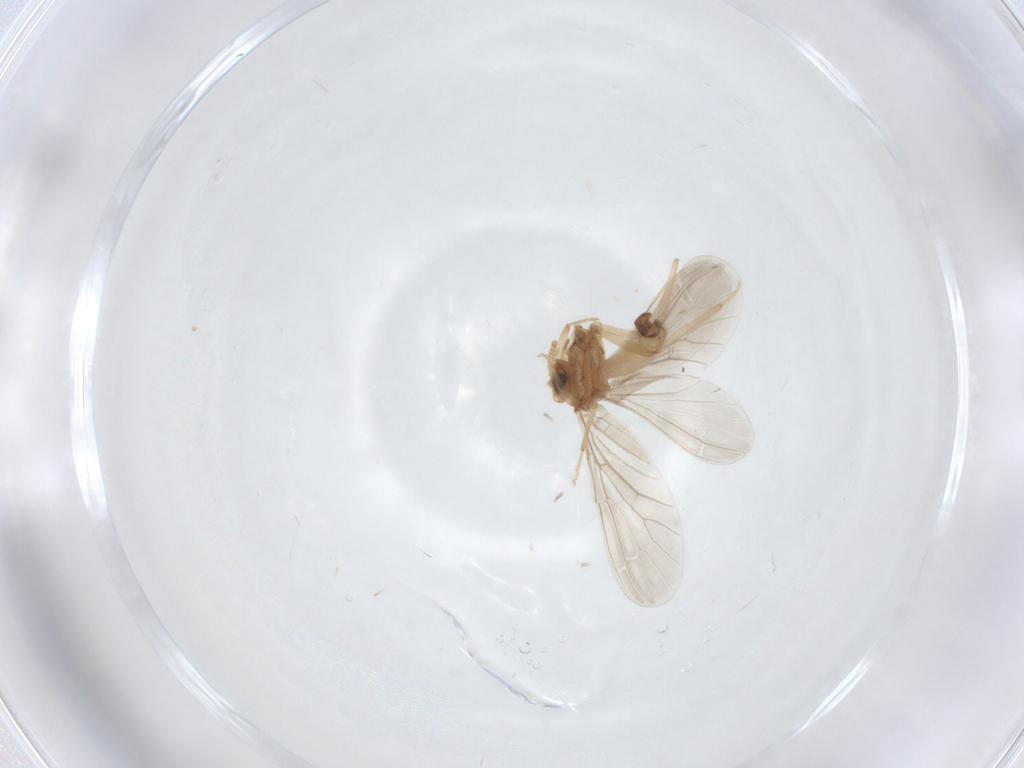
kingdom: Animalia
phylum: Arthropoda
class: Insecta
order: Neuroptera
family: Coniopterygidae
